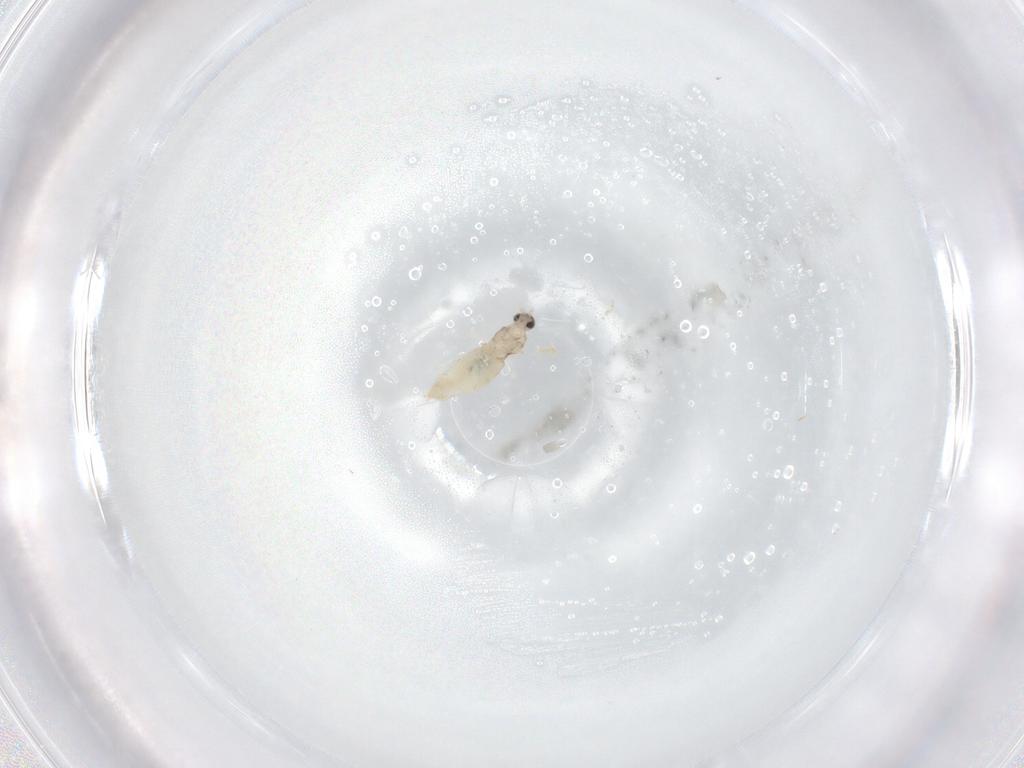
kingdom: Animalia
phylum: Arthropoda
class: Insecta
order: Diptera
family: Cecidomyiidae
